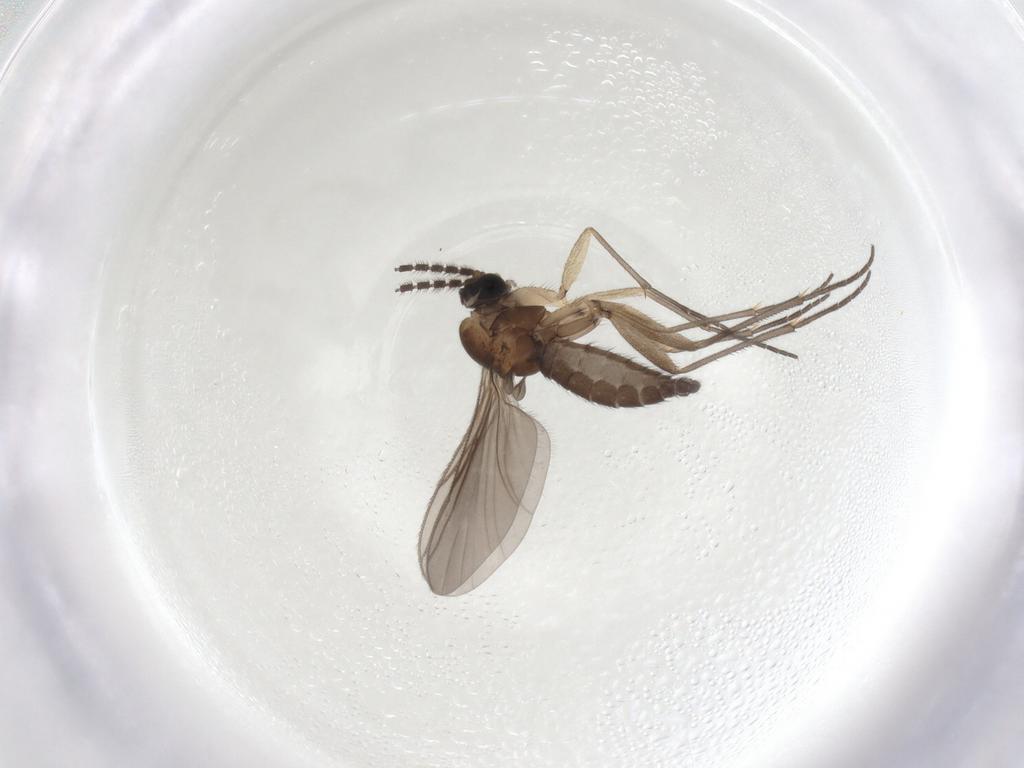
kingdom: Animalia
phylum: Arthropoda
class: Insecta
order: Diptera
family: Sciaridae
